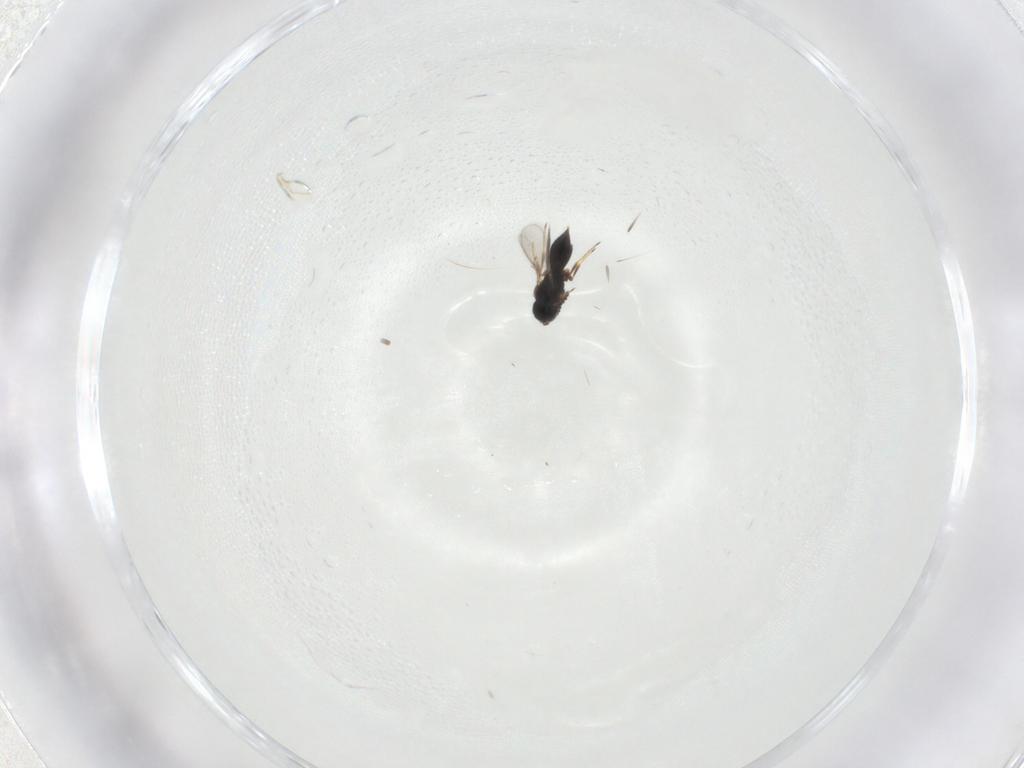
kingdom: Animalia
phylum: Arthropoda
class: Insecta
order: Hymenoptera
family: Scelionidae
